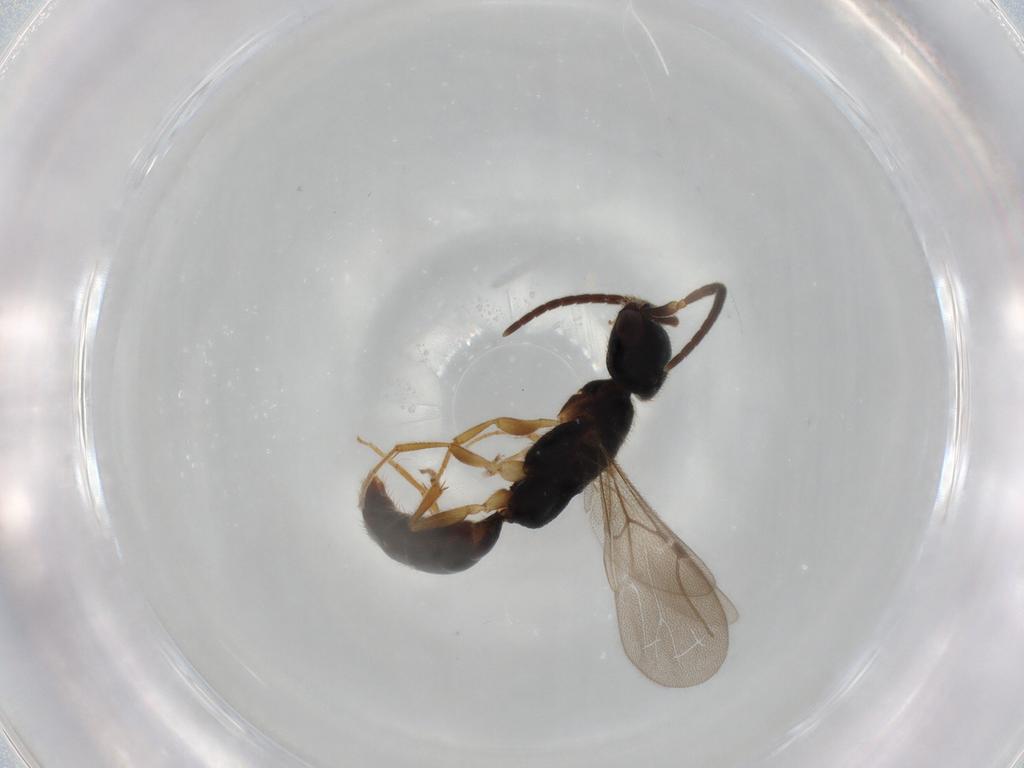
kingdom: Animalia
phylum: Arthropoda
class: Insecta
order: Hymenoptera
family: Bethylidae
